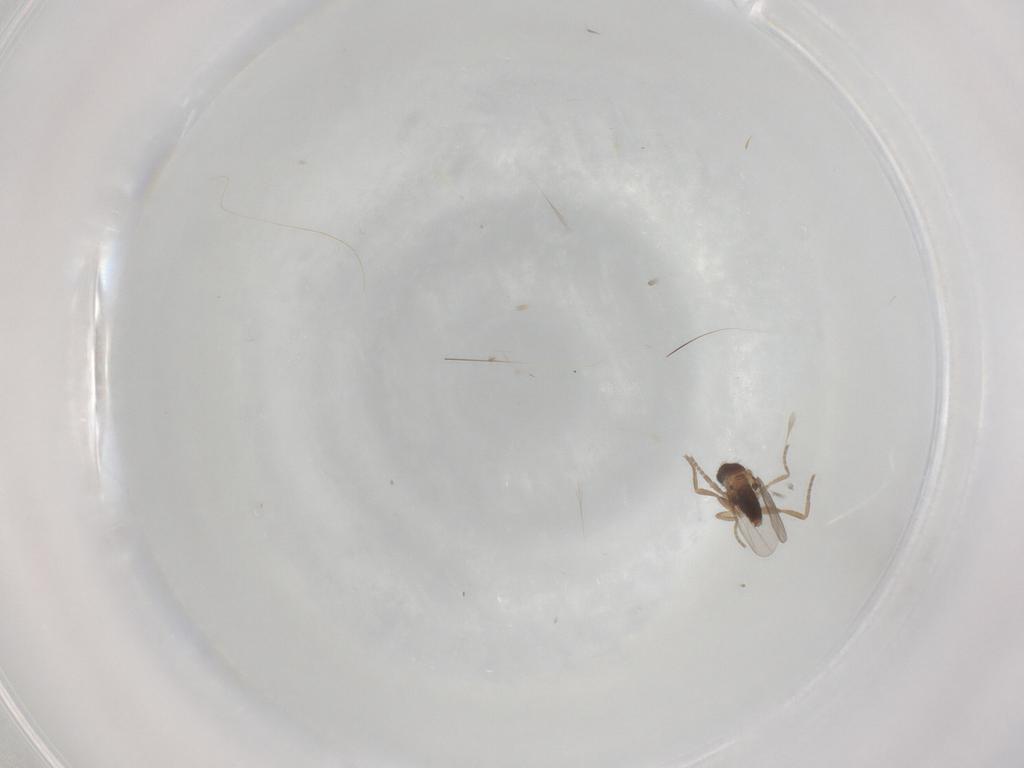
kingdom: Animalia
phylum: Arthropoda
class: Insecta
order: Diptera
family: Phoridae
